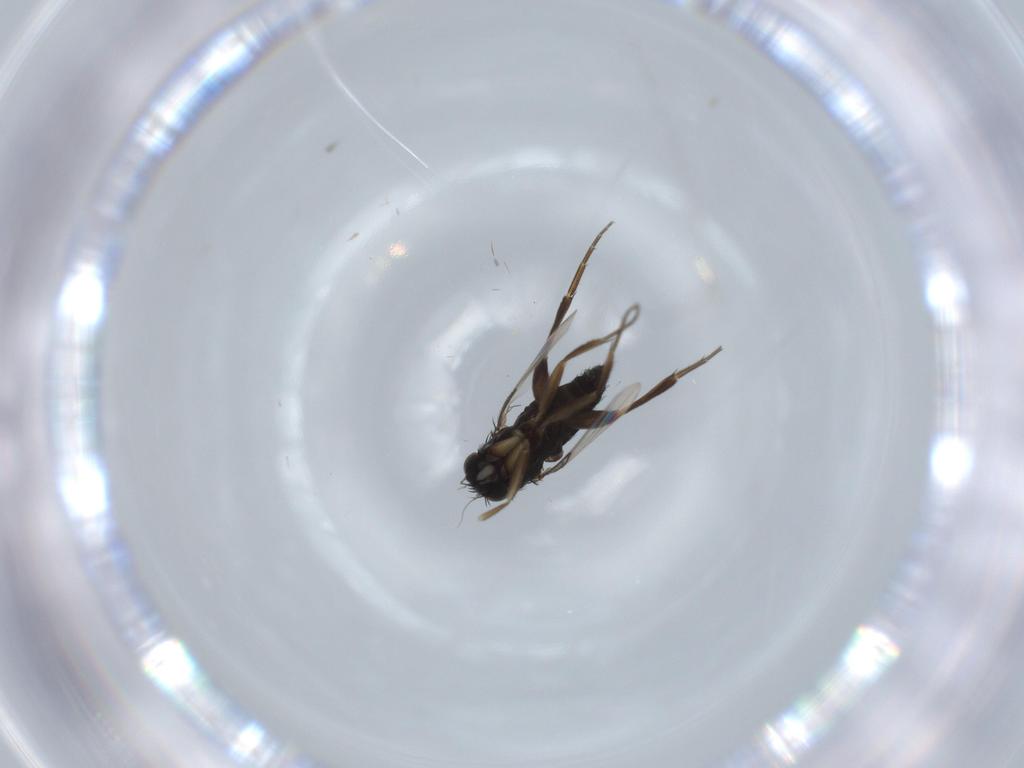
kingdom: Animalia
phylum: Arthropoda
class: Insecta
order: Diptera
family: Phoridae
